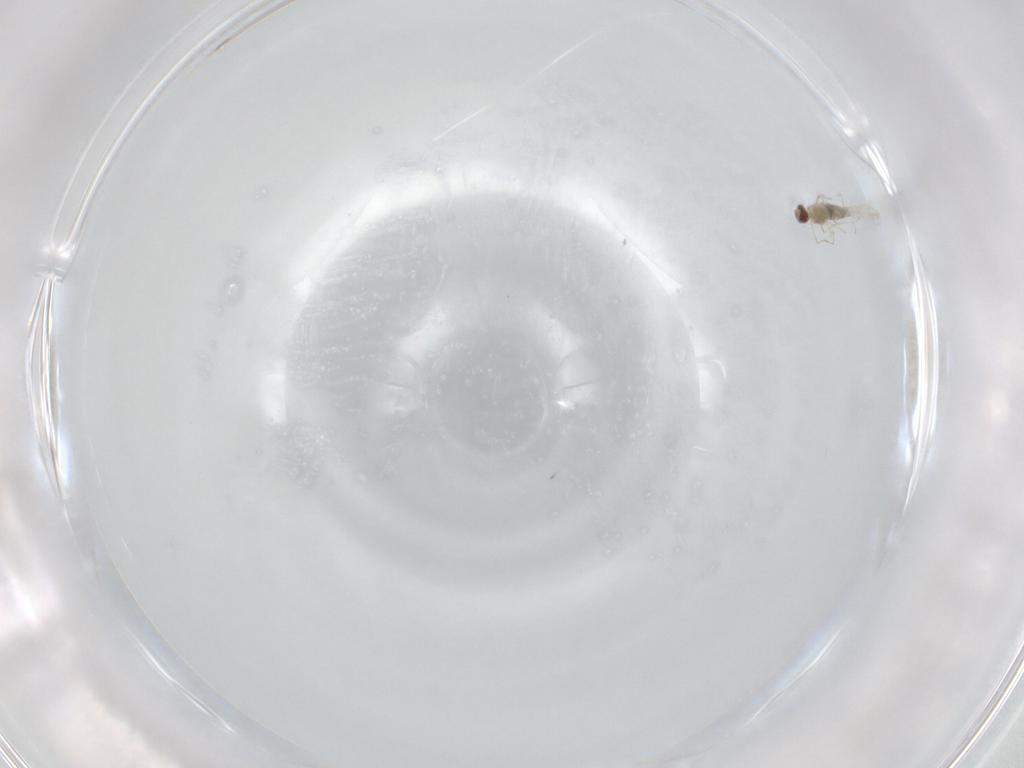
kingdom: Animalia
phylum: Arthropoda
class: Insecta
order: Diptera
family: Cecidomyiidae
